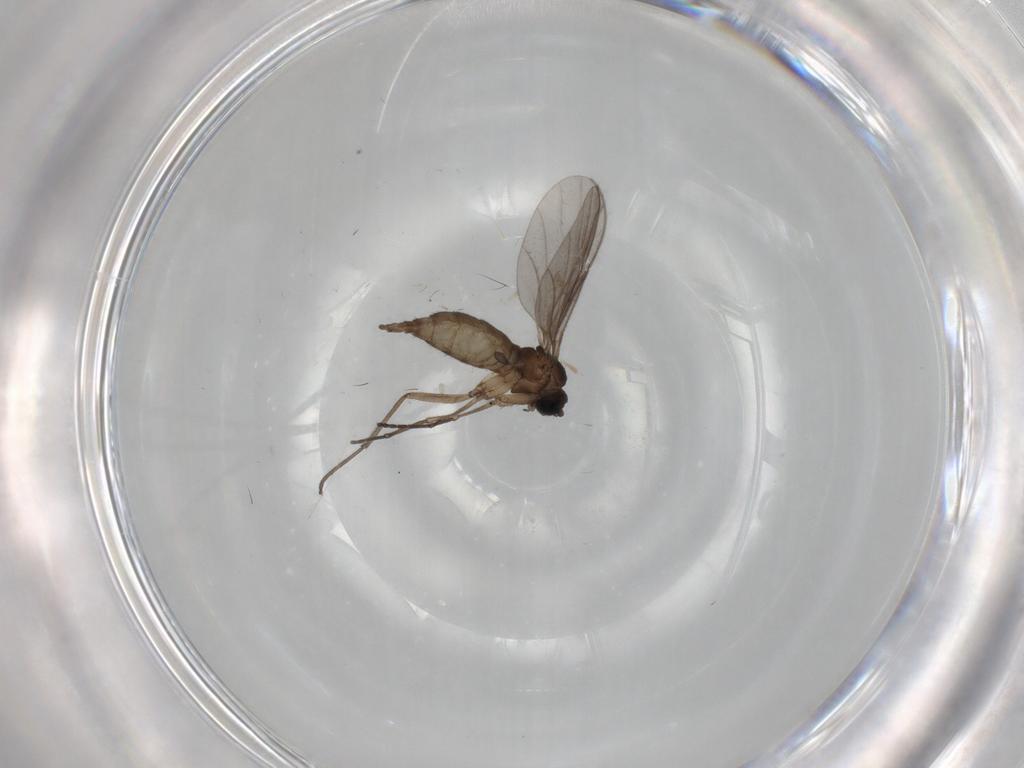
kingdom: Animalia
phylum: Arthropoda
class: Insecta
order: Diptera
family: Sciaridae
